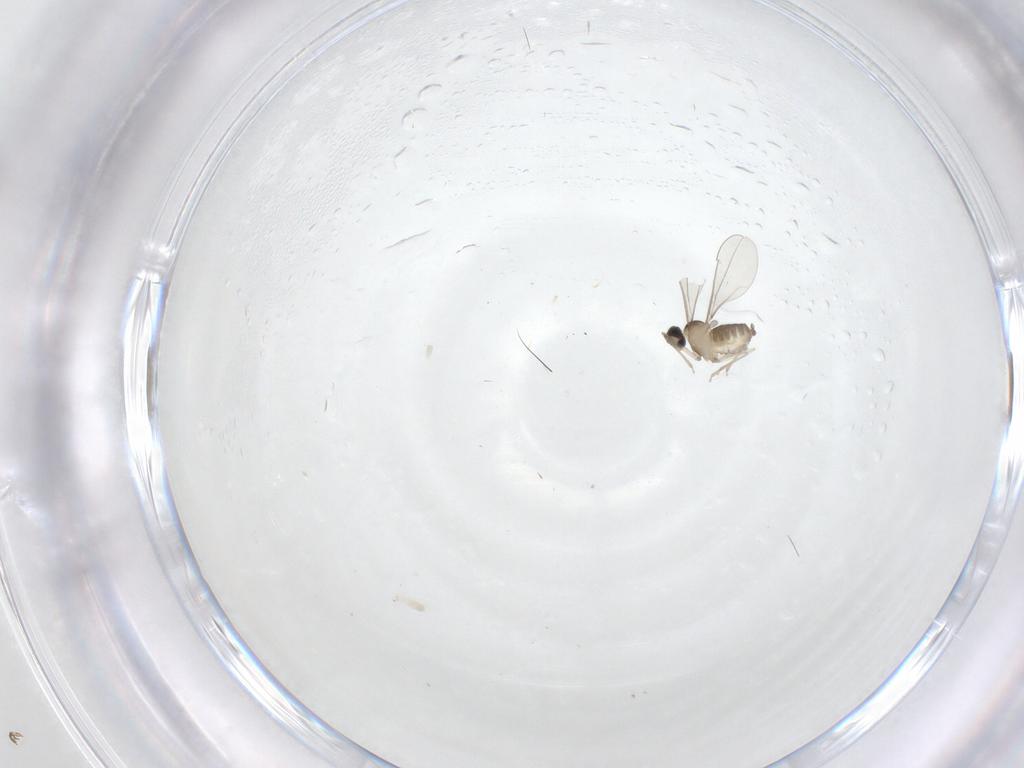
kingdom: Animalia
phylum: Arthropoda
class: Insecta
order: Diptera
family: Cecidomyiidae
